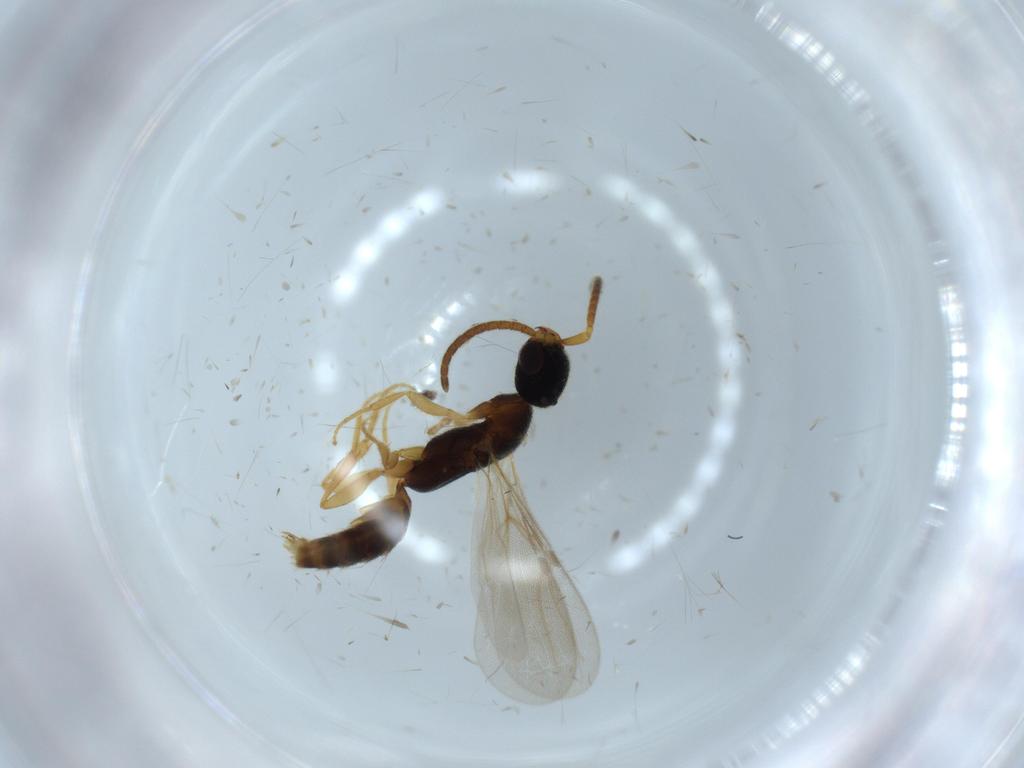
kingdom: Animalia
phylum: Arthropoda
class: Insecta
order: Hymenoptera
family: Bethylidae
